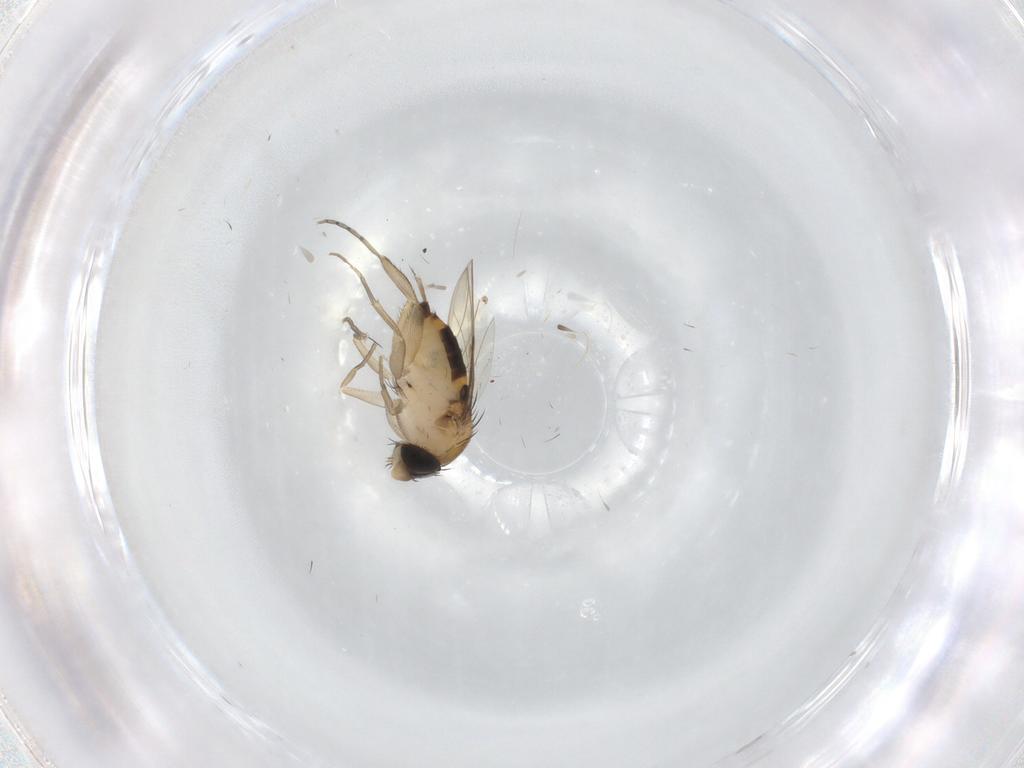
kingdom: Animalia
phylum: Arthropoda
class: Insecta
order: Diptera
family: Phoridae
